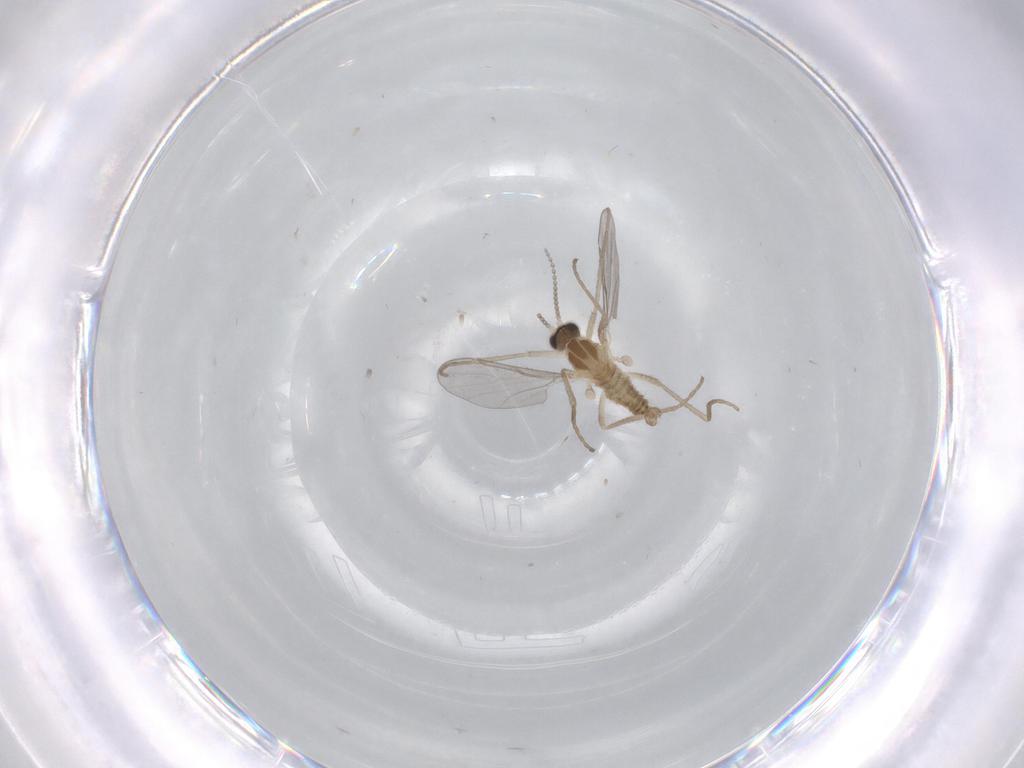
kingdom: Animalia
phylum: Arthropoda
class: Insecta
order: Diptera
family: Cecidomyiidae
